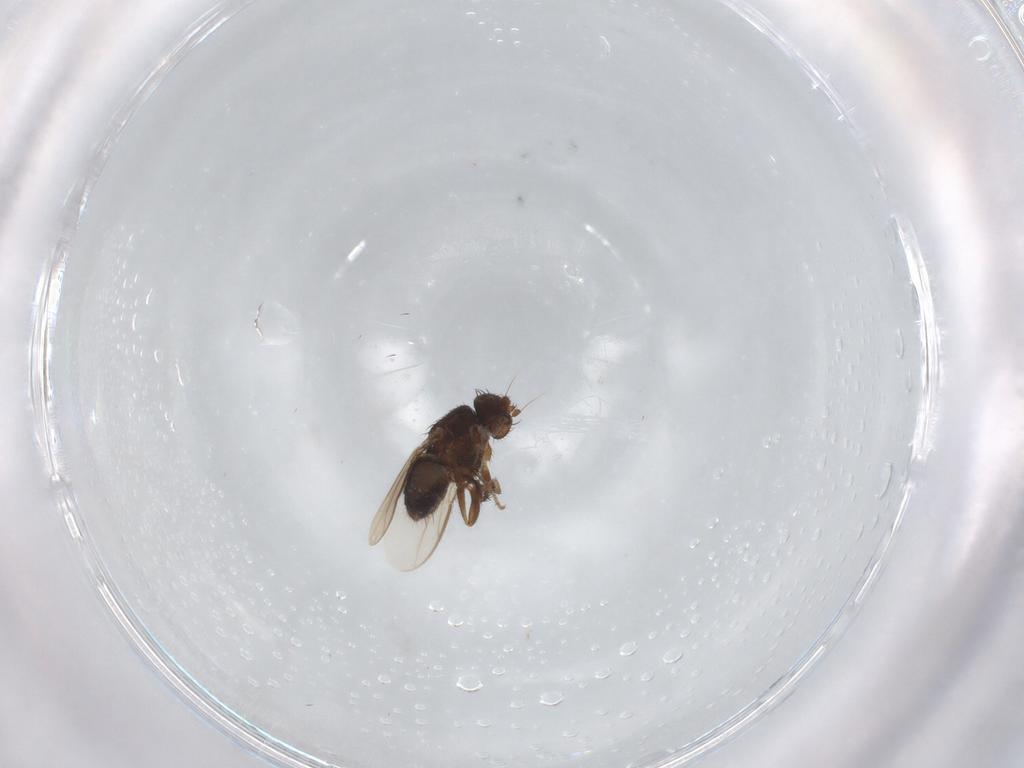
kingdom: Animalia
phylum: Arthropoda
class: Insecta
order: Diptera
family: Sphaeroceridae
